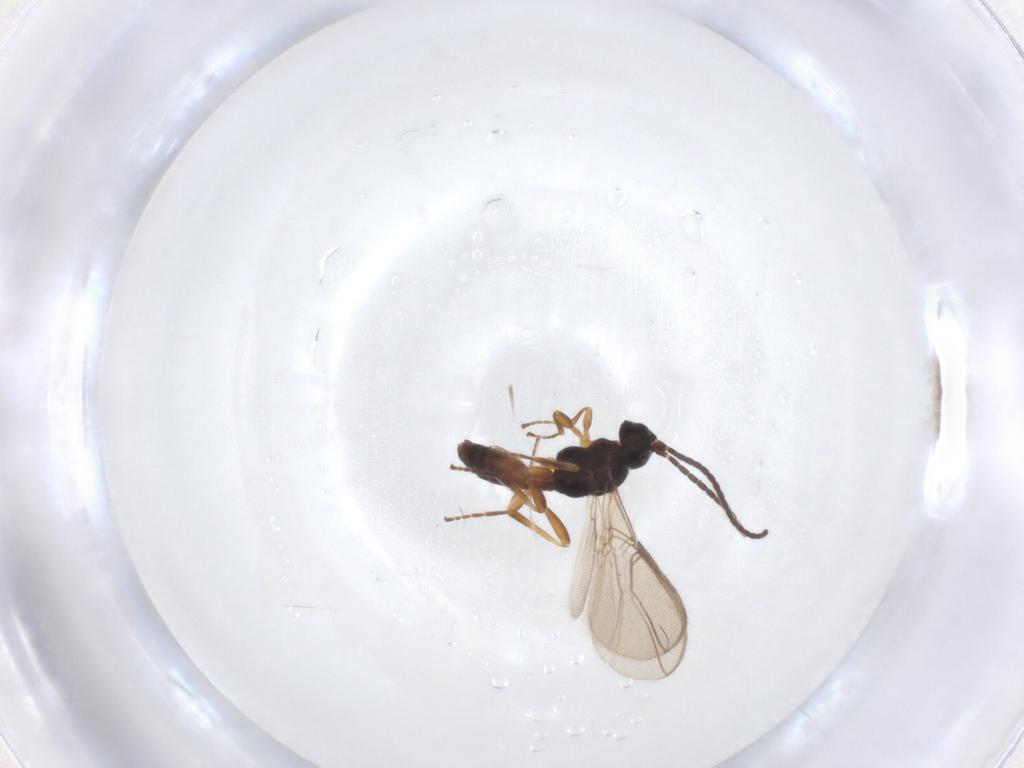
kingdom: Animalia
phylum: Arthropoda
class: Insecta
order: Hymenoptera
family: Braconidae
